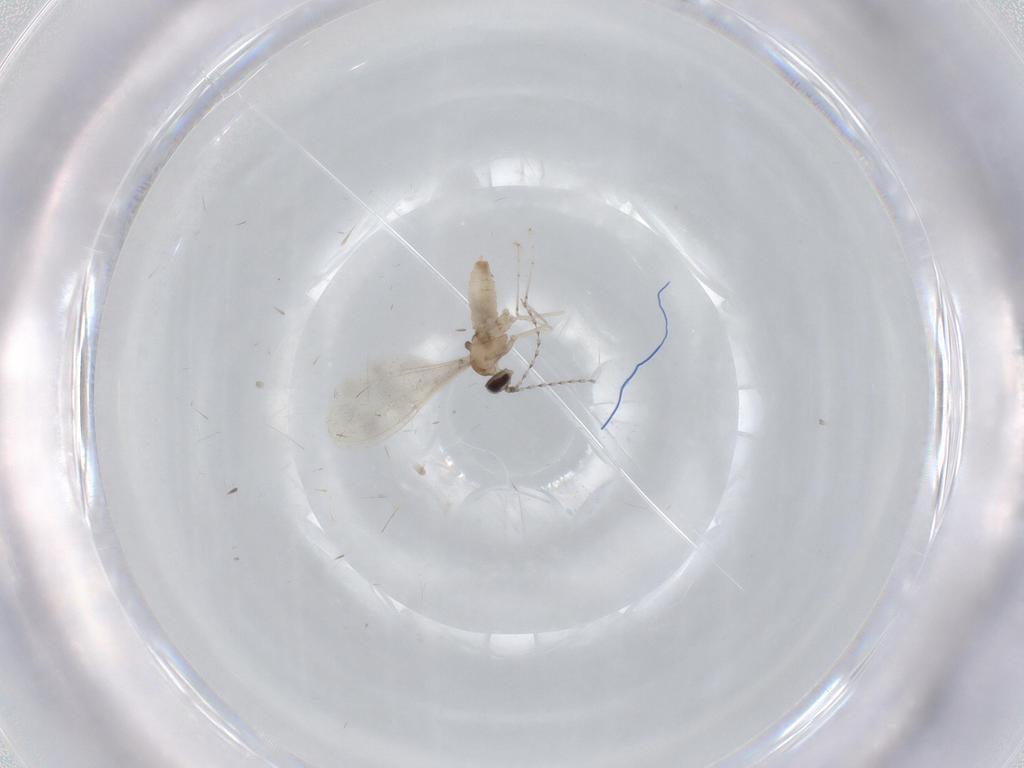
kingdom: Animalia
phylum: Arthropoda
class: Insecta
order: Diptera
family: Cecidomyiidae
